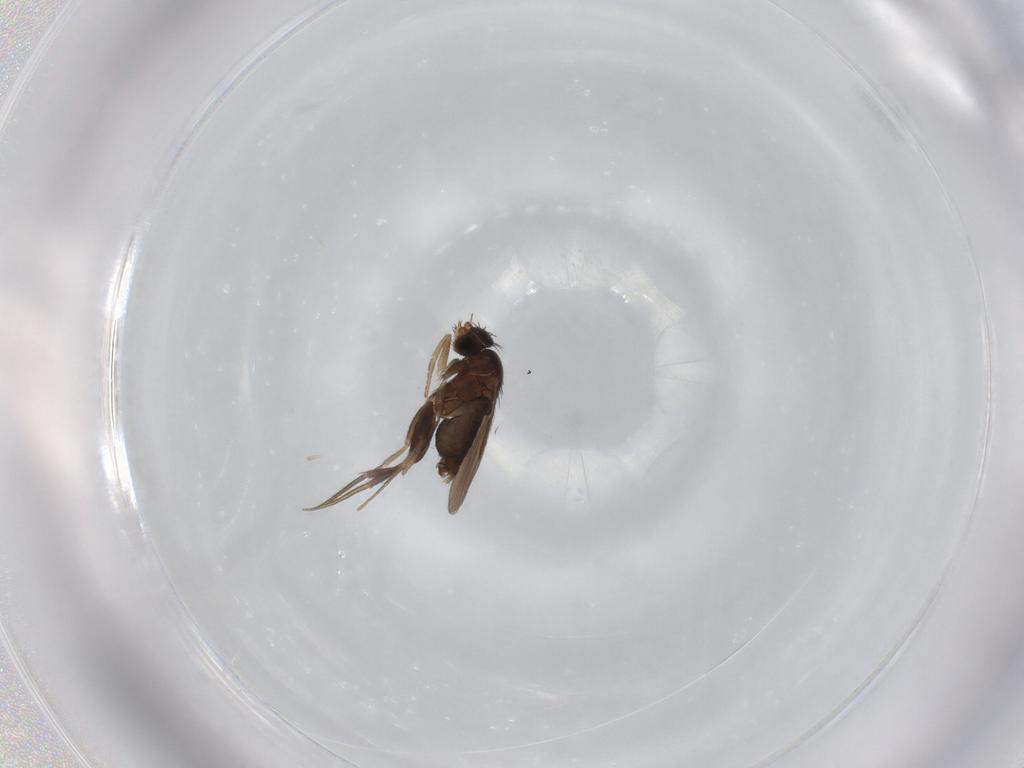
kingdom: Animalia
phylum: Arthropoda
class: Insecta
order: Diptera
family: Phoridae
